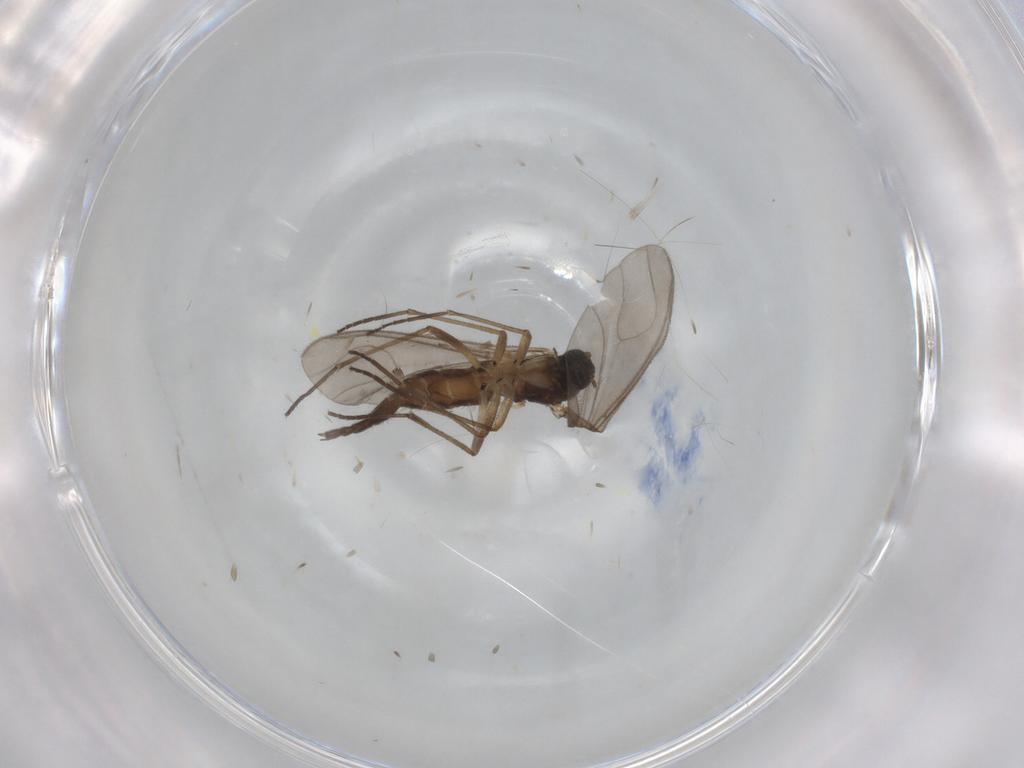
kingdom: Animalia
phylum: Arthropoda
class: Insecta
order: Diptera
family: Sciaridae
